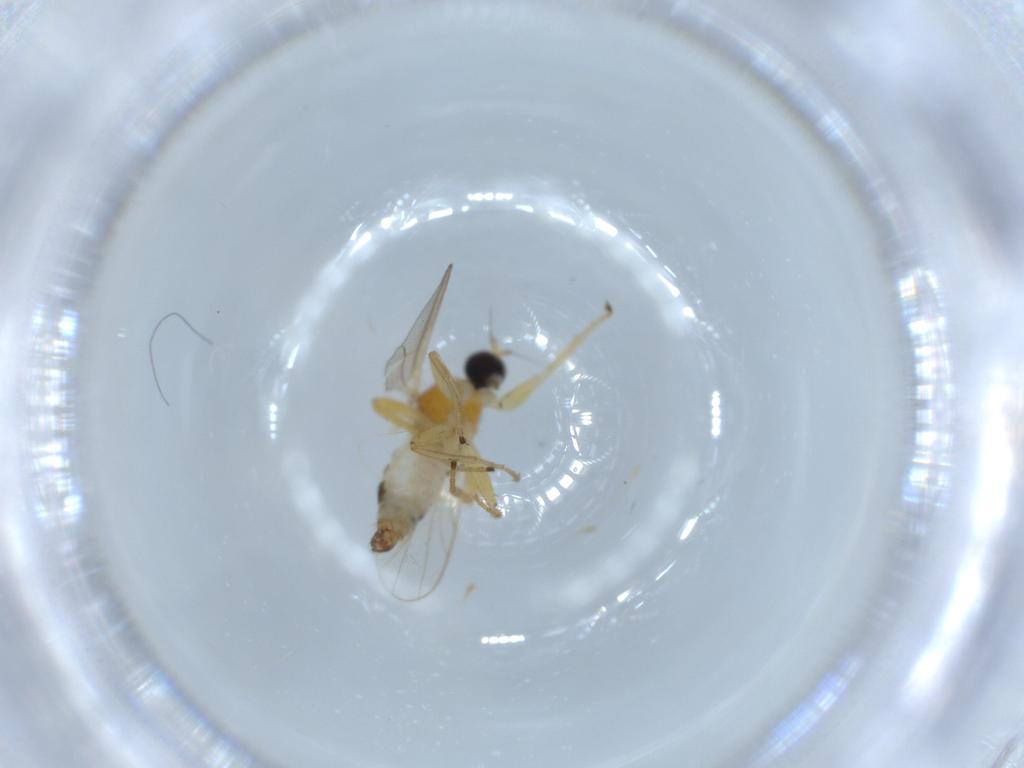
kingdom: Animalia
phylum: Arthropoda
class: Insecta
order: Diptera
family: Hybotidae
